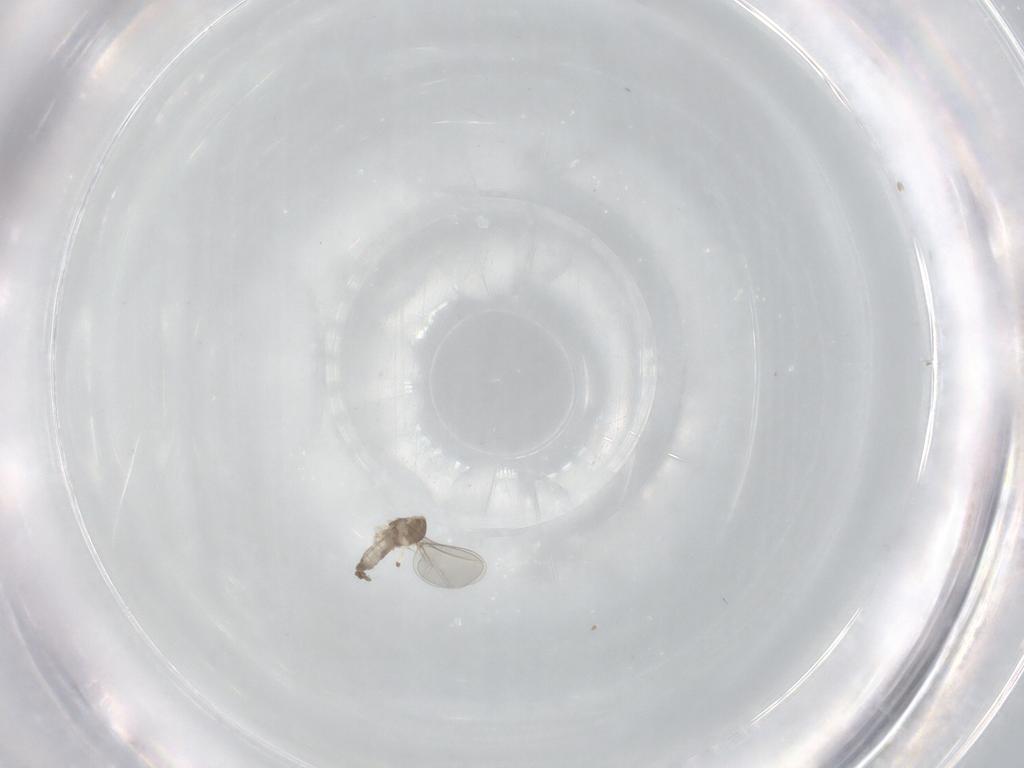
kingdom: Animalia
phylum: Arthropoda
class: Insecta
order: Diptera
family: Cecidomyiidae
